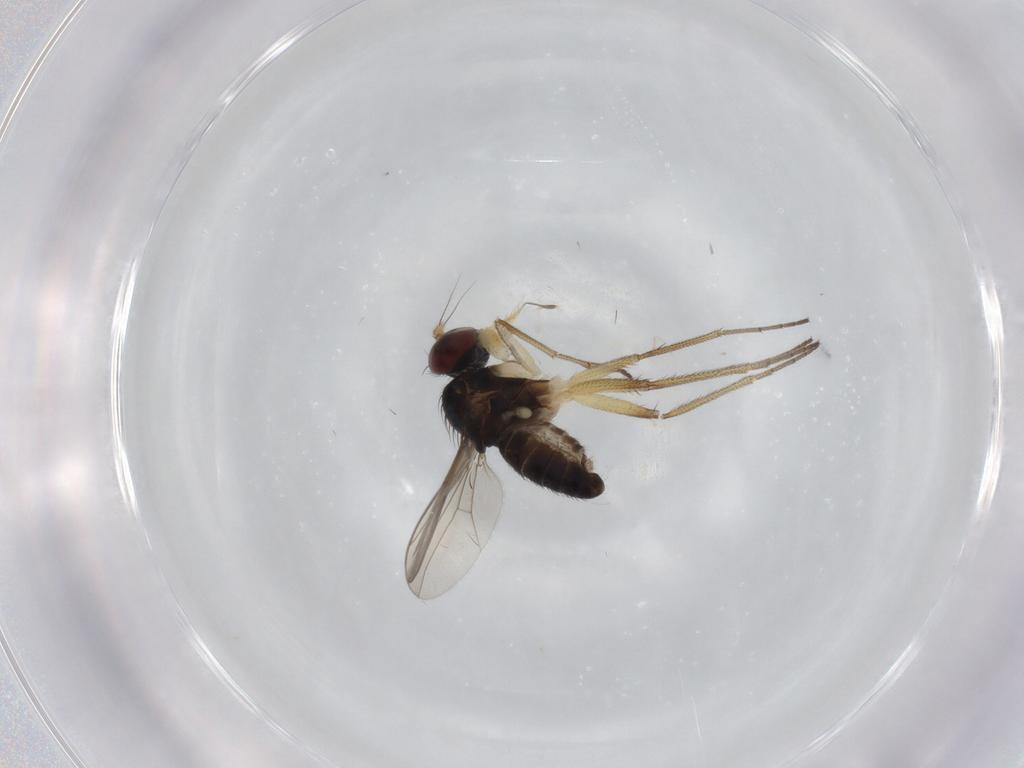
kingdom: Animalia
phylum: Arthropoda
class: Insecta
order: Diptera
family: Dolichopodidae
